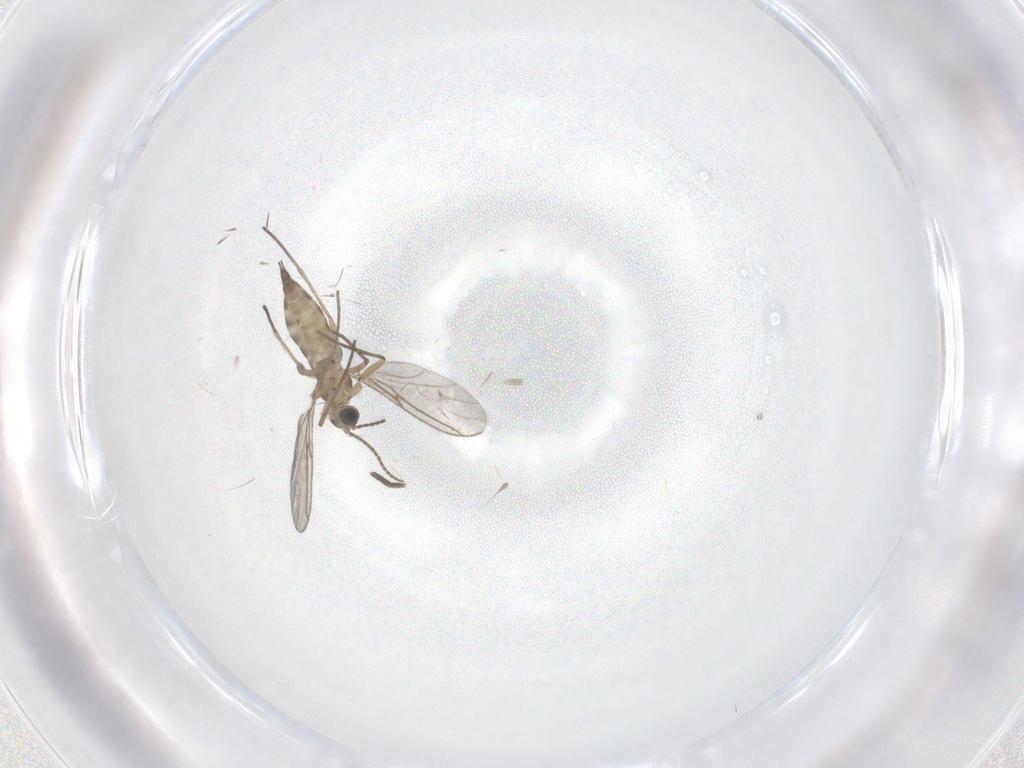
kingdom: Animalia
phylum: Arthropoda
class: Insecta
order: Diptera
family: Sciaridae
